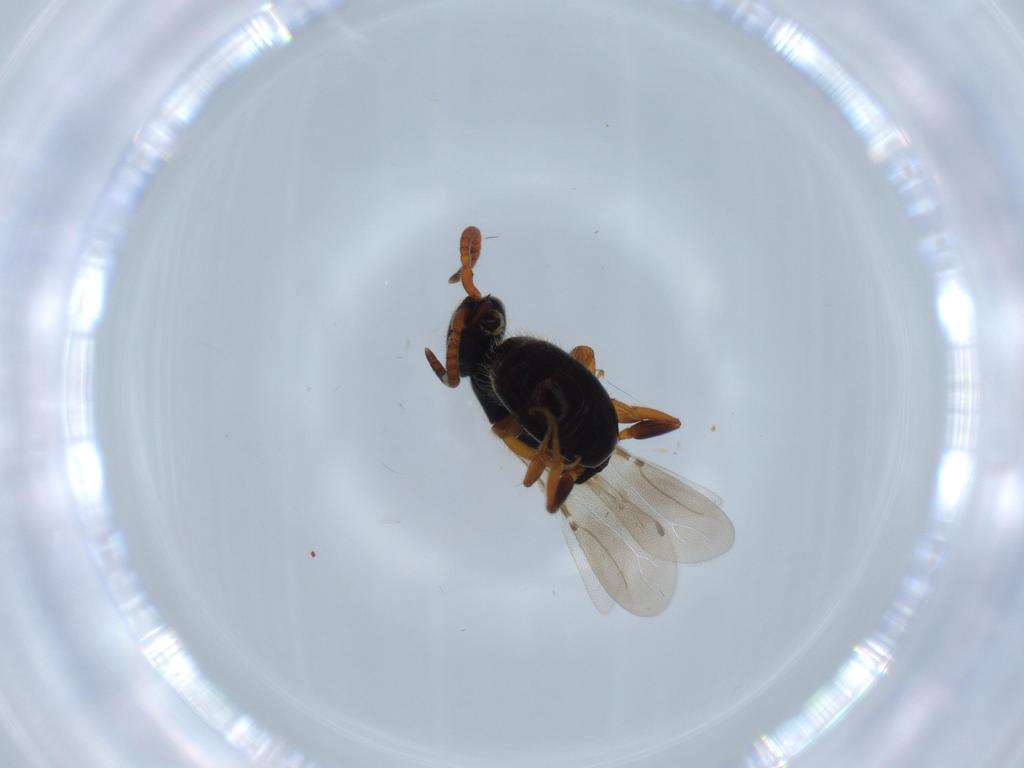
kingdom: Animalia
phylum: Arthropoda
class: Insecta
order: Hymenoptera
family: Bethylidae
